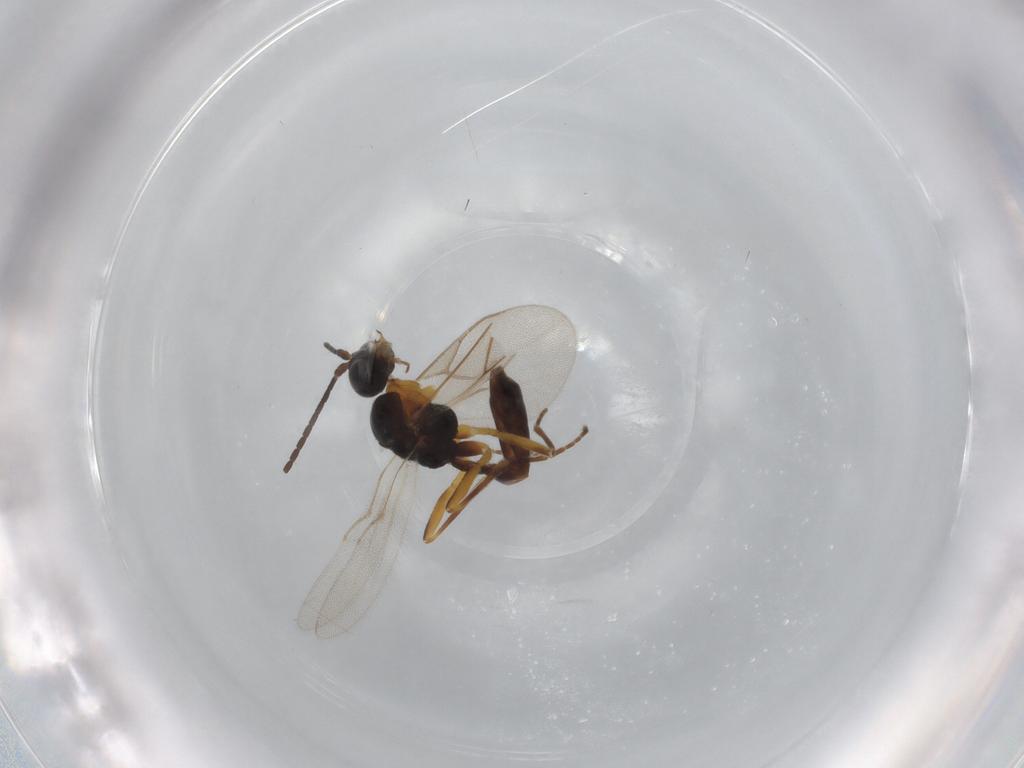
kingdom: Animalia
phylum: Arthropoda
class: Insecta
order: Hymenoptera
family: Braconidae
